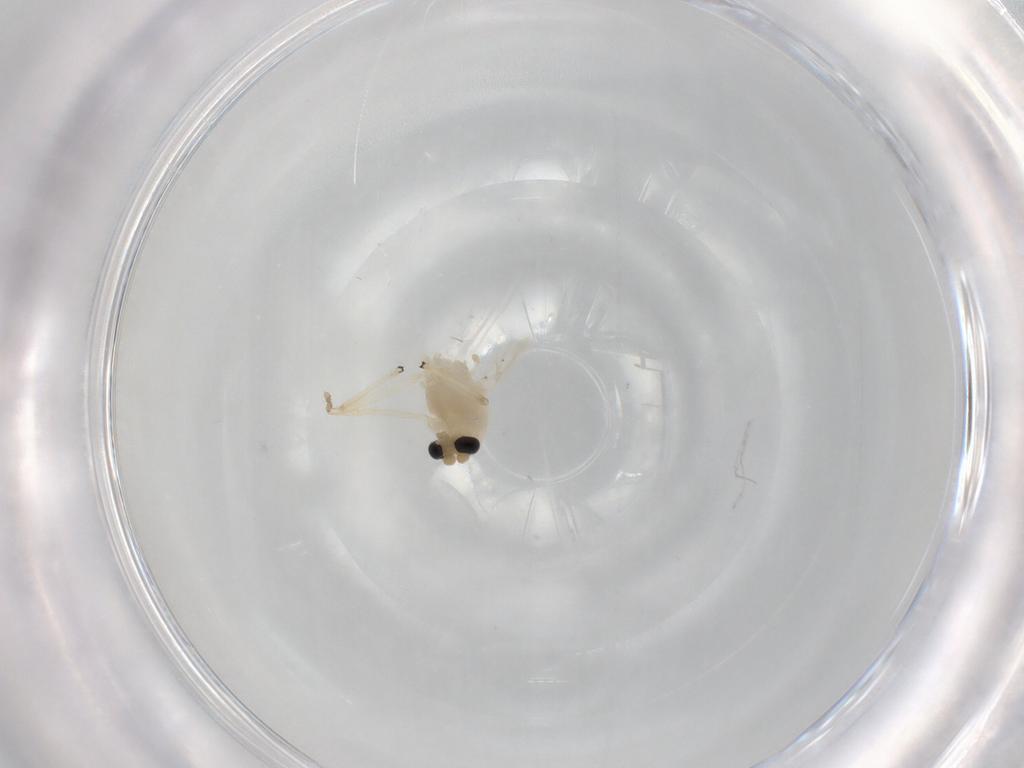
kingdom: Animalia
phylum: Arthropoda
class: Insecta
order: Diptera
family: Chironomidae
